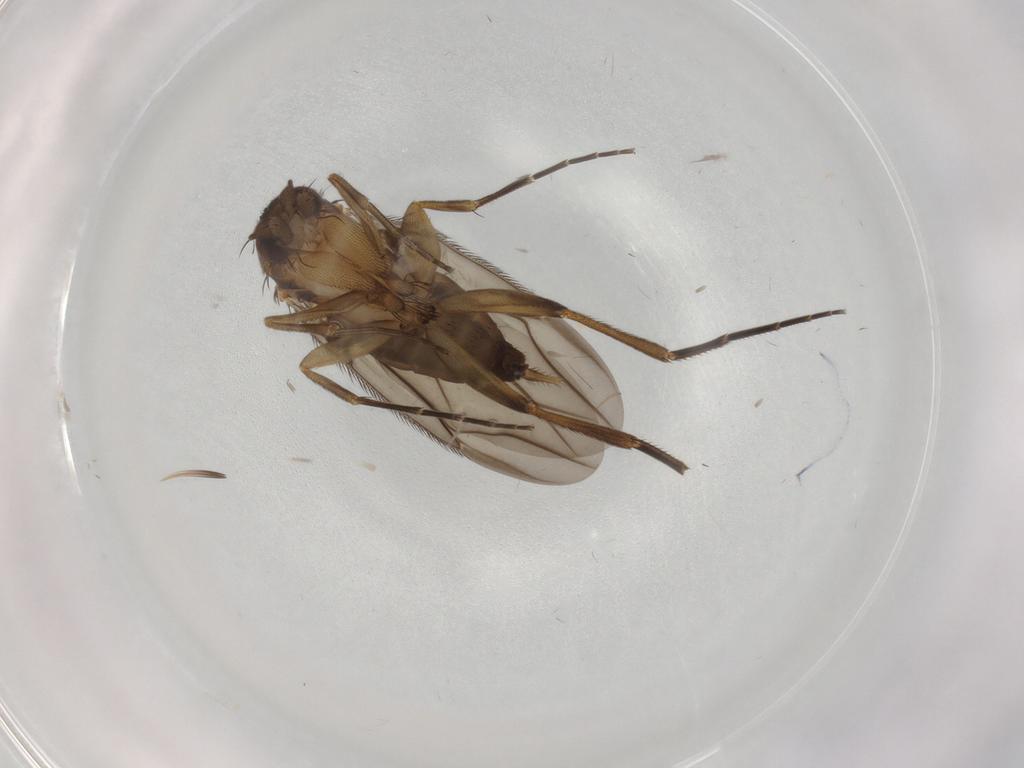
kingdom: Animalia
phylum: Arthropoda
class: Insecta
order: Diptera
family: Phoridae
